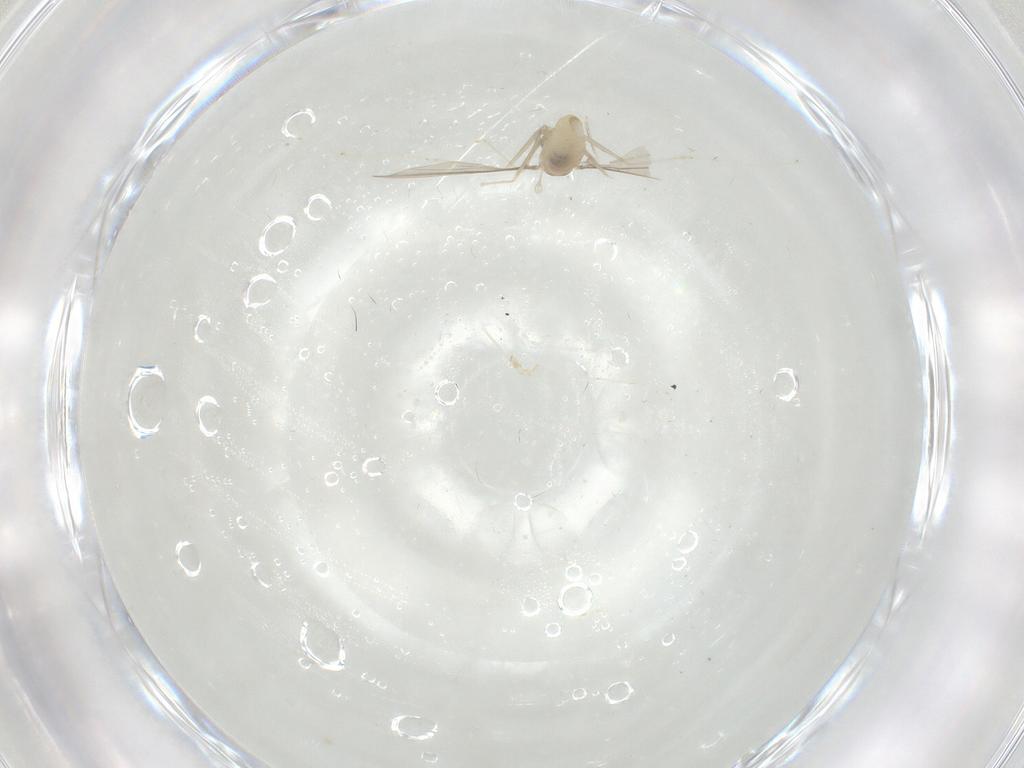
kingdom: Animalia
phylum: Arthropoda
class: Insecta
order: Diptera
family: Cecidomyiidae
